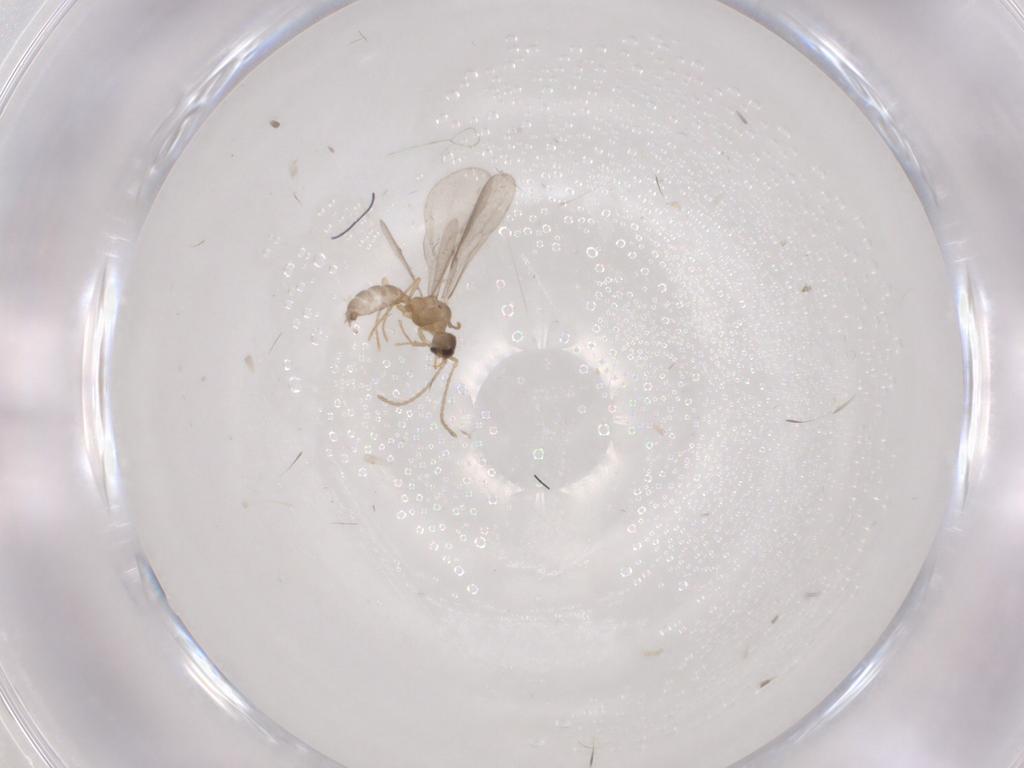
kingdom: Animalia
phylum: Arthropoda
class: Insecta
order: Hymenoptera
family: Formicidae
